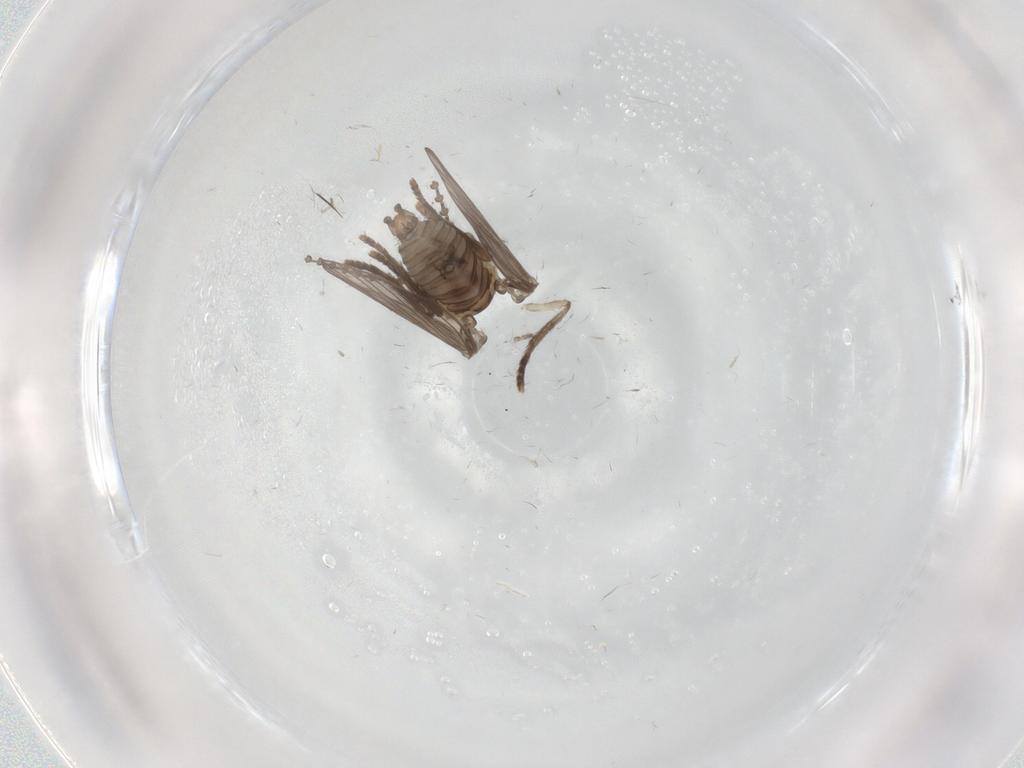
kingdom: Animalia
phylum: Arthropoda
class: Insecta
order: Diptera
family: Psychodidae
